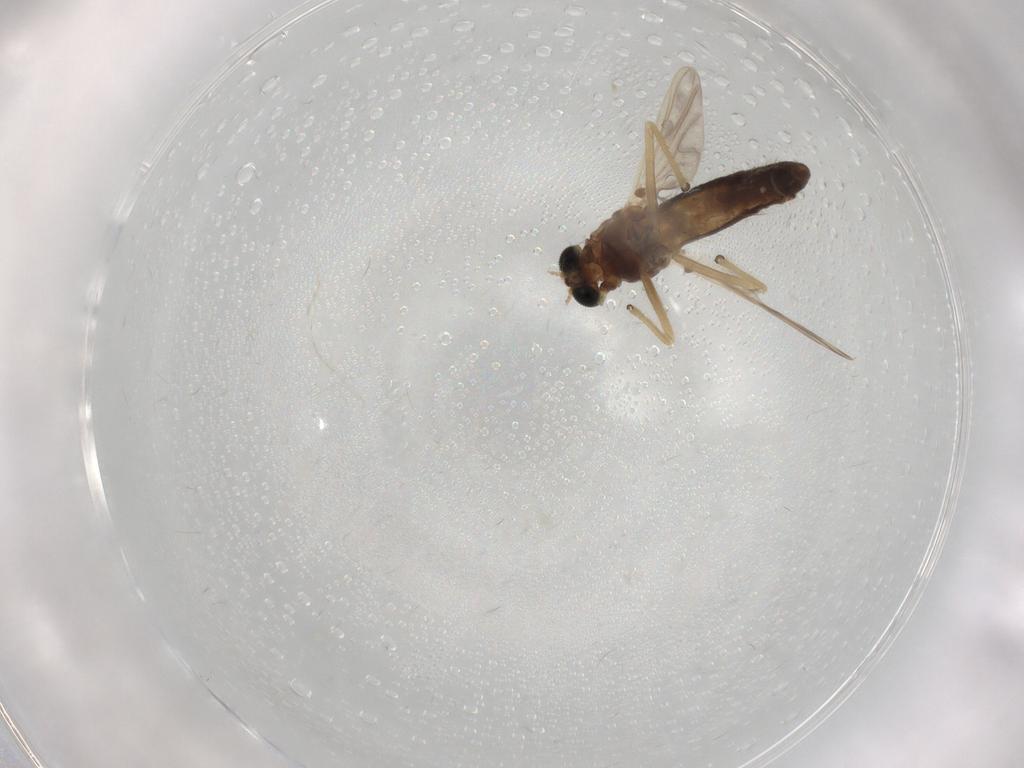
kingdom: Animalia
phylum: Arthropoda
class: Insecta
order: Diptera
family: Chironomidae
